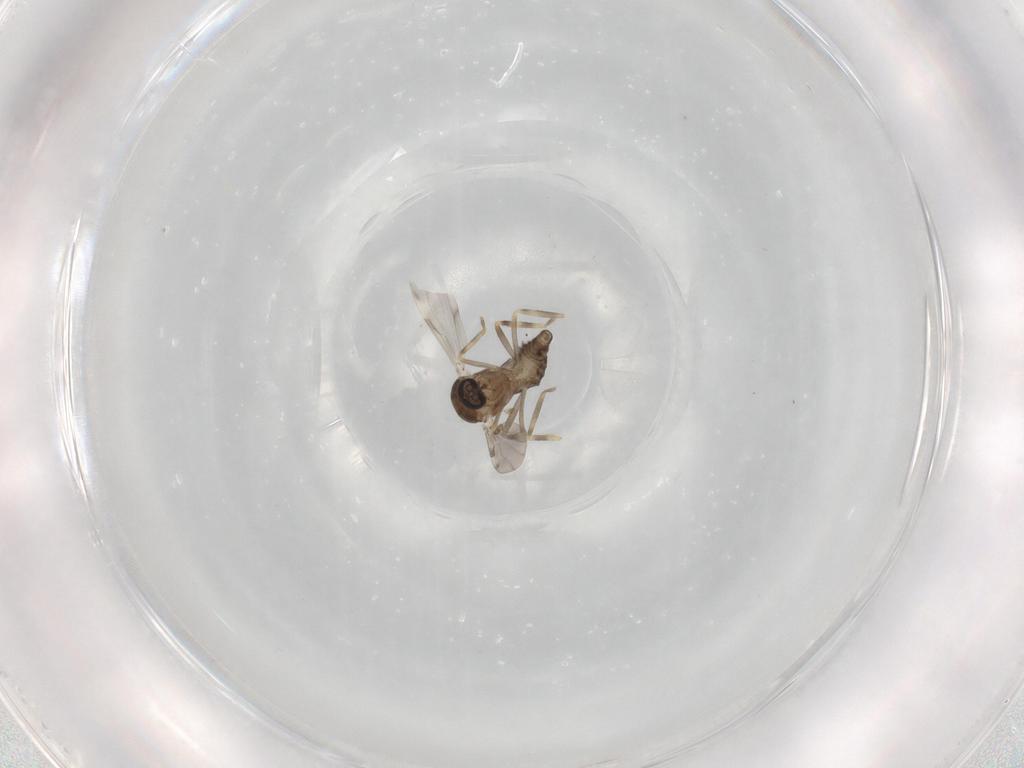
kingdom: Animalia
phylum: Arthropoda
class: Insecta
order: Diptera
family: Ceratopogonidae
